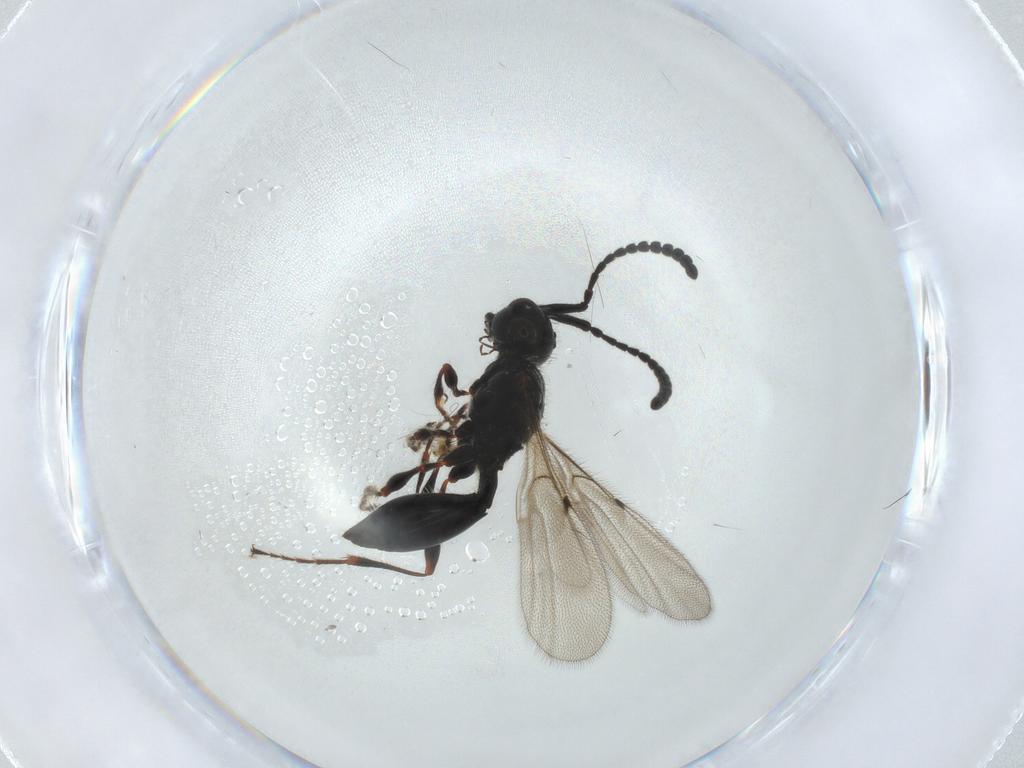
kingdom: Animalia
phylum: Arthropoda
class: Insecta
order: Hymenoptera
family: Diapriidae
